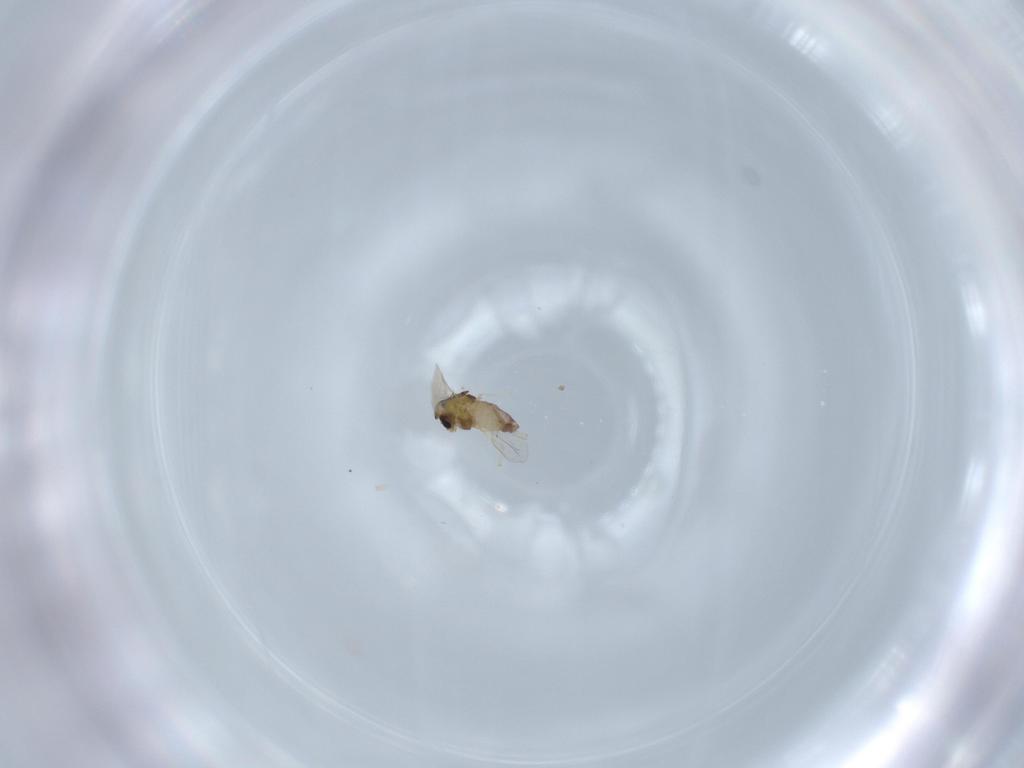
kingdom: Animalia
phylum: Arthropoda
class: Insecta
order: Diptera
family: Chironomidae
